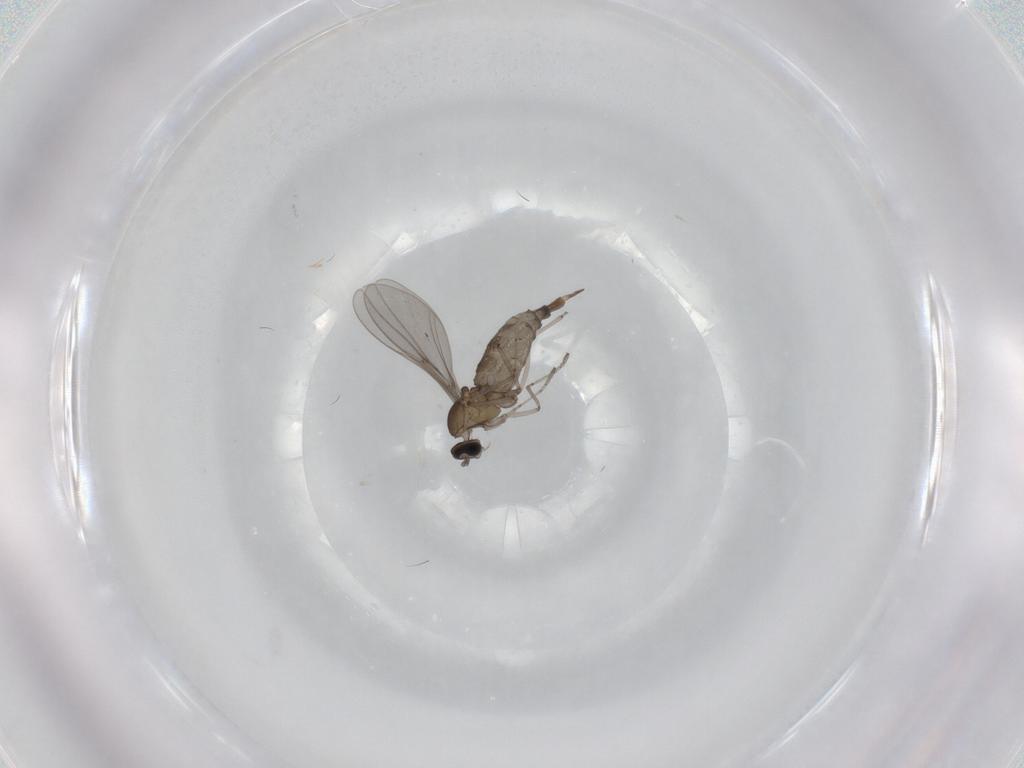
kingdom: Animalia
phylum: Arthropoda
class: Insecta
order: Diptera
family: Cecidomyiidae
